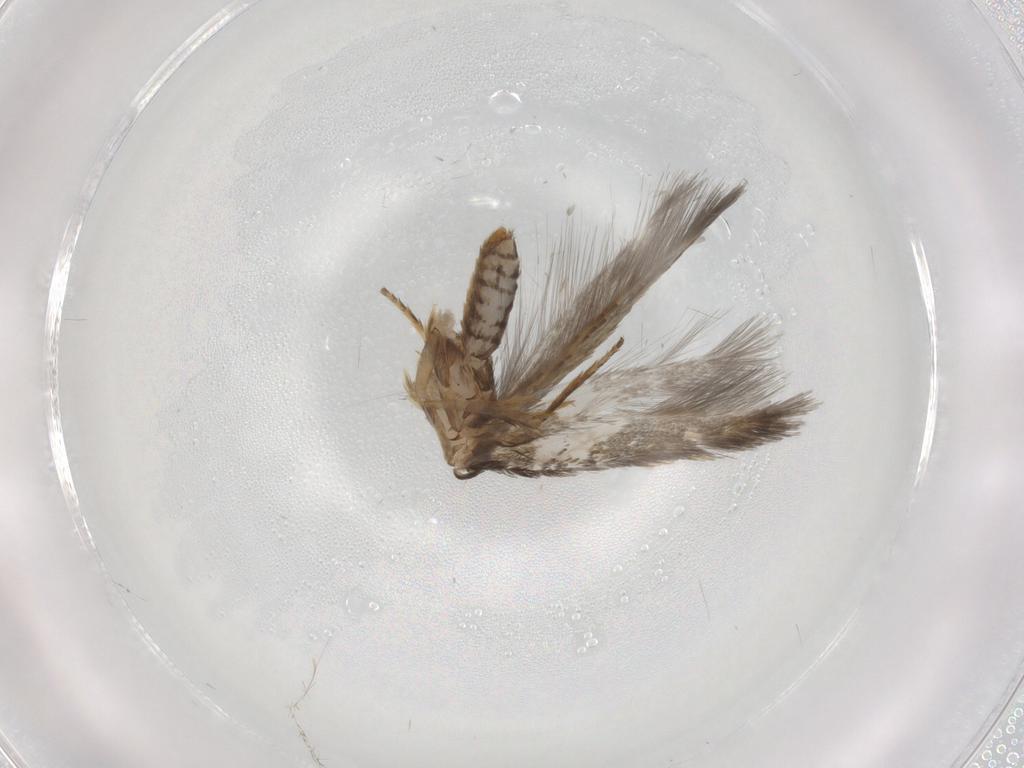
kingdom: Animalia
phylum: Arthropoda
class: Insecta
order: Lepidoptera
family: Nepticulidae
